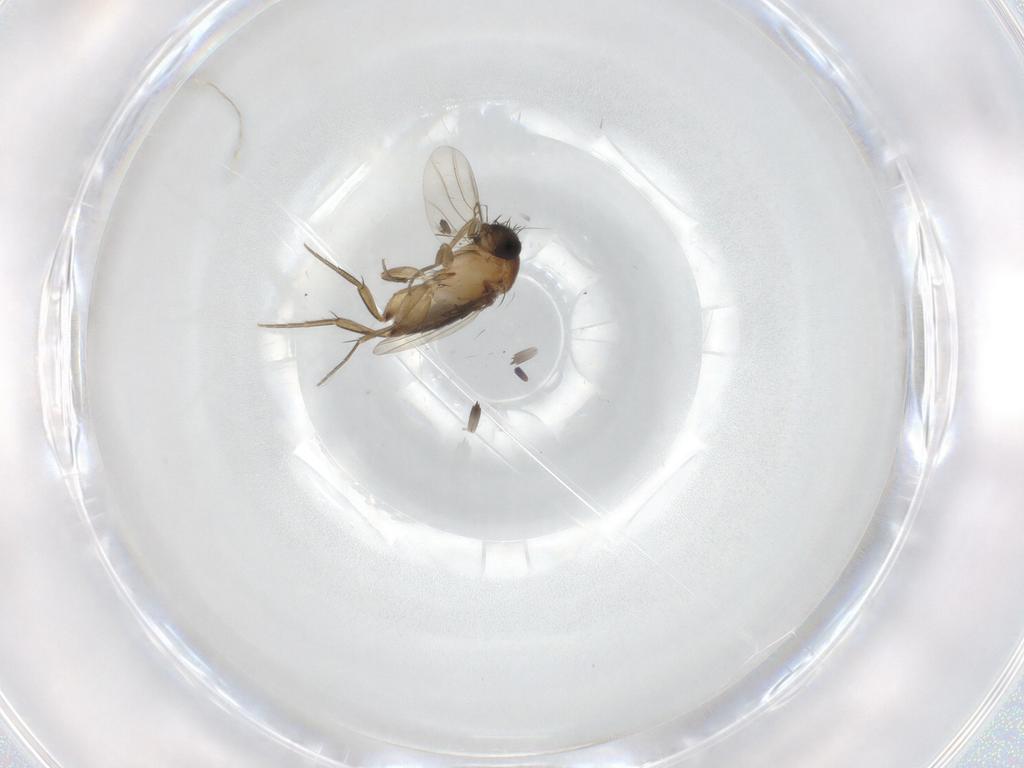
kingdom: Animalia
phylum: Arthropoda
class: Insecta
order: Diptera
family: Phoridae
